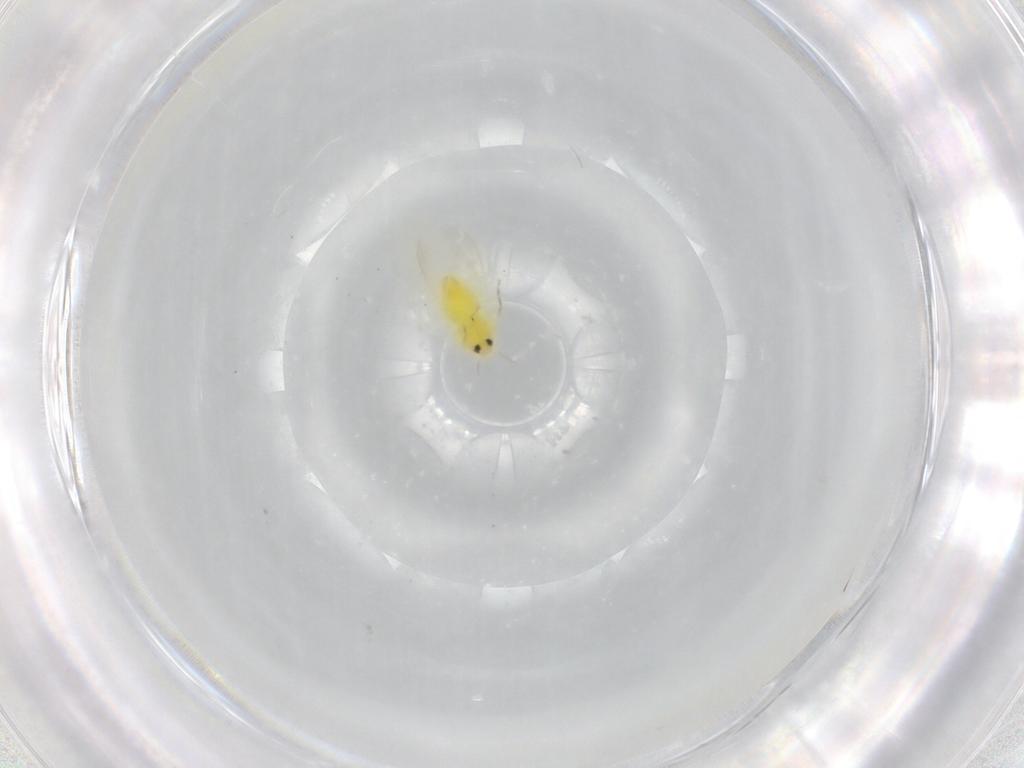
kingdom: Animalia
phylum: Arthropoda
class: Insecta
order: Hemiptera
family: Aleyrodidae
